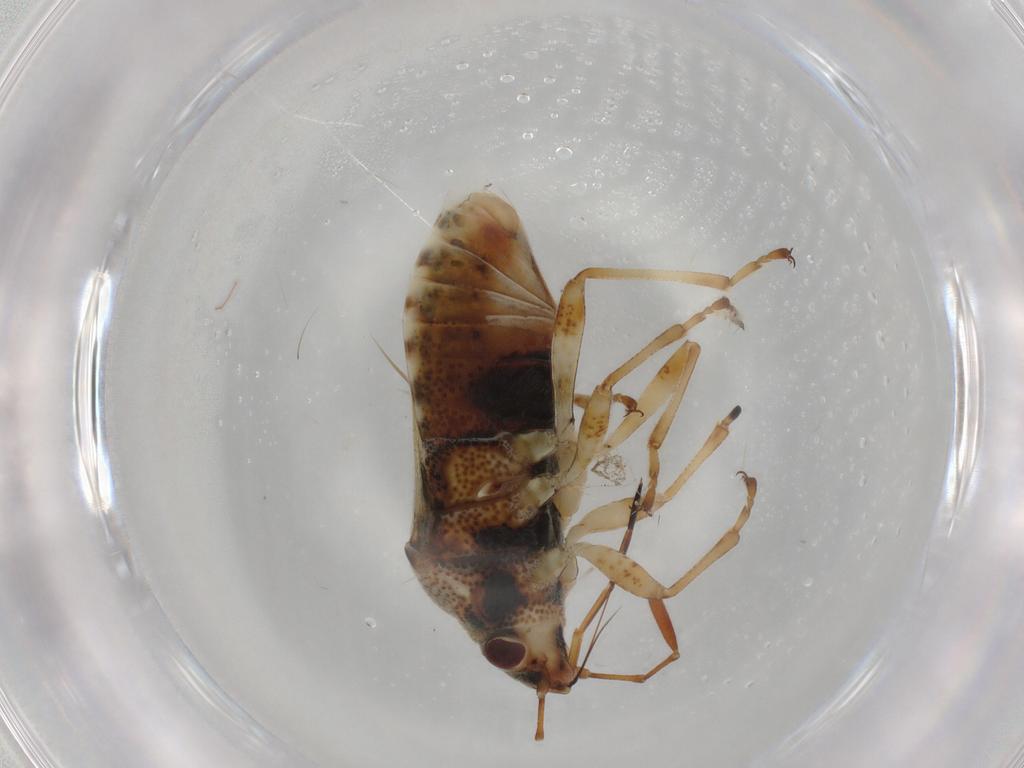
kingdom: Animalia
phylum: Arthropoda
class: Insecta
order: Hemiptera
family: Lygaeidae
